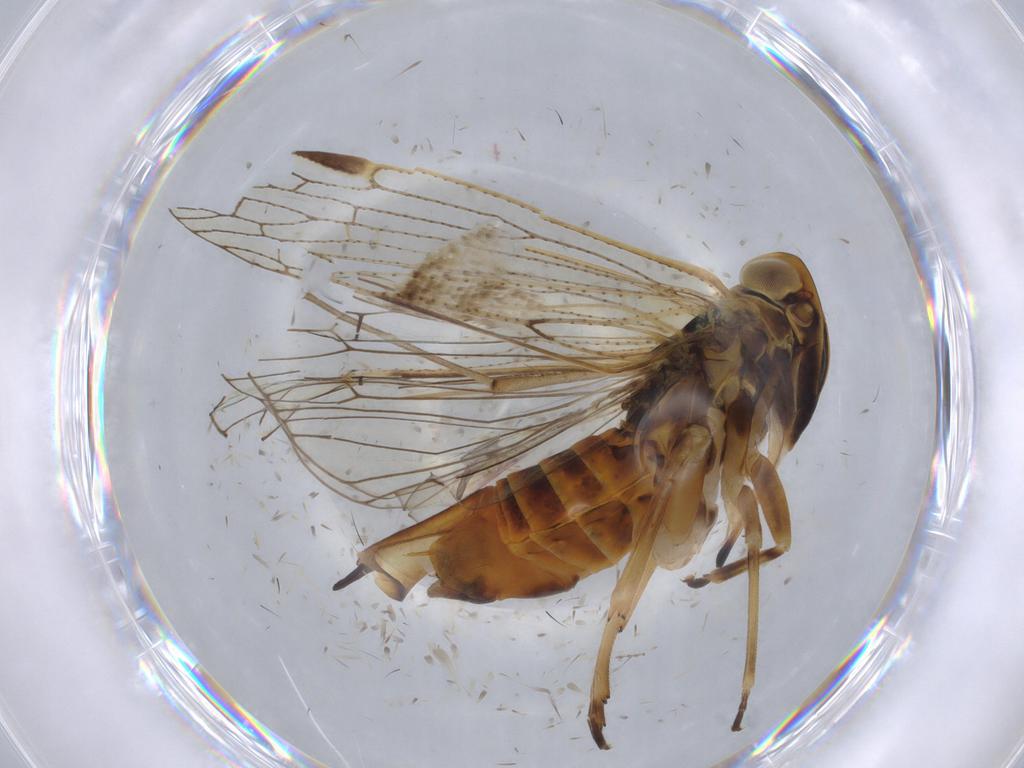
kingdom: Animalia
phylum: Arthropoda
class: Insecta
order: Hemiptera
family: Cixiidae
